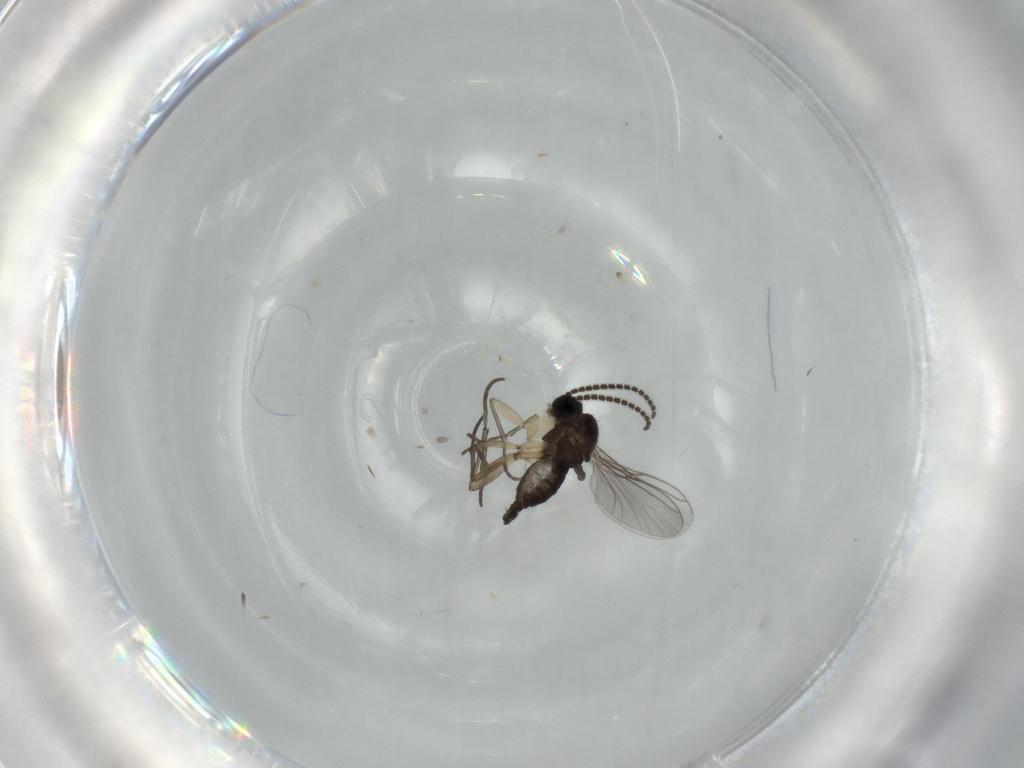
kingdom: Animalia
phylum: Arthropoda
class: Insecta
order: Diptera
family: Sciaridae
